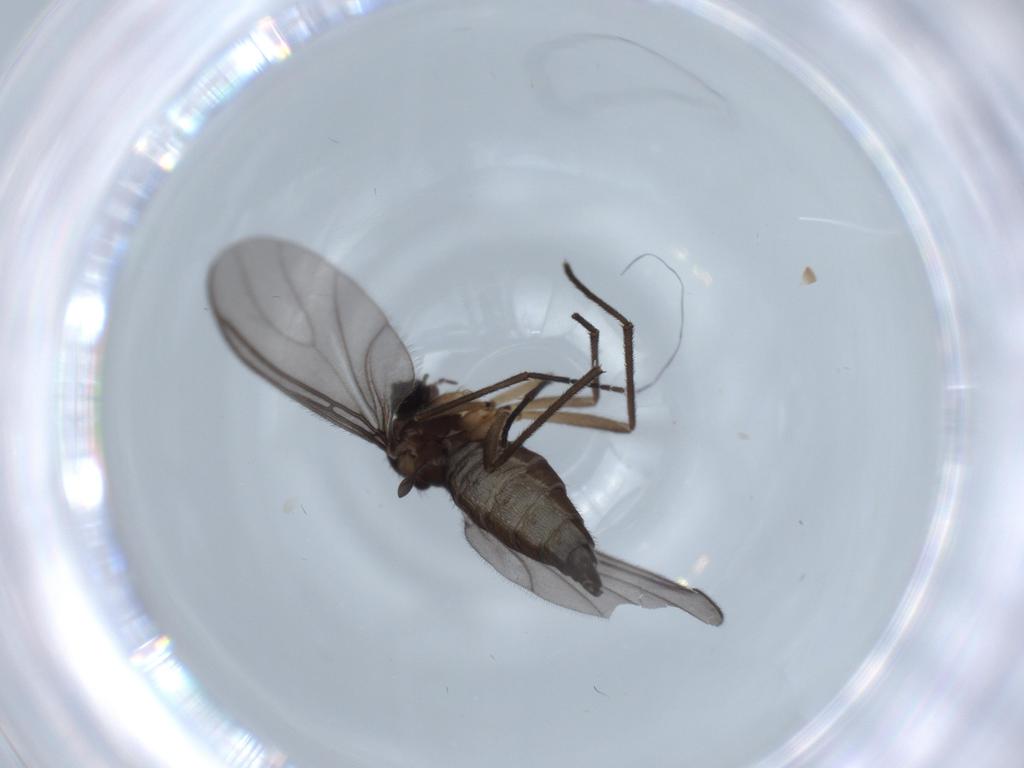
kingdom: Animalia
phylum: Arthropoda
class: Insecta
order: Diptera
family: Sciaridae
